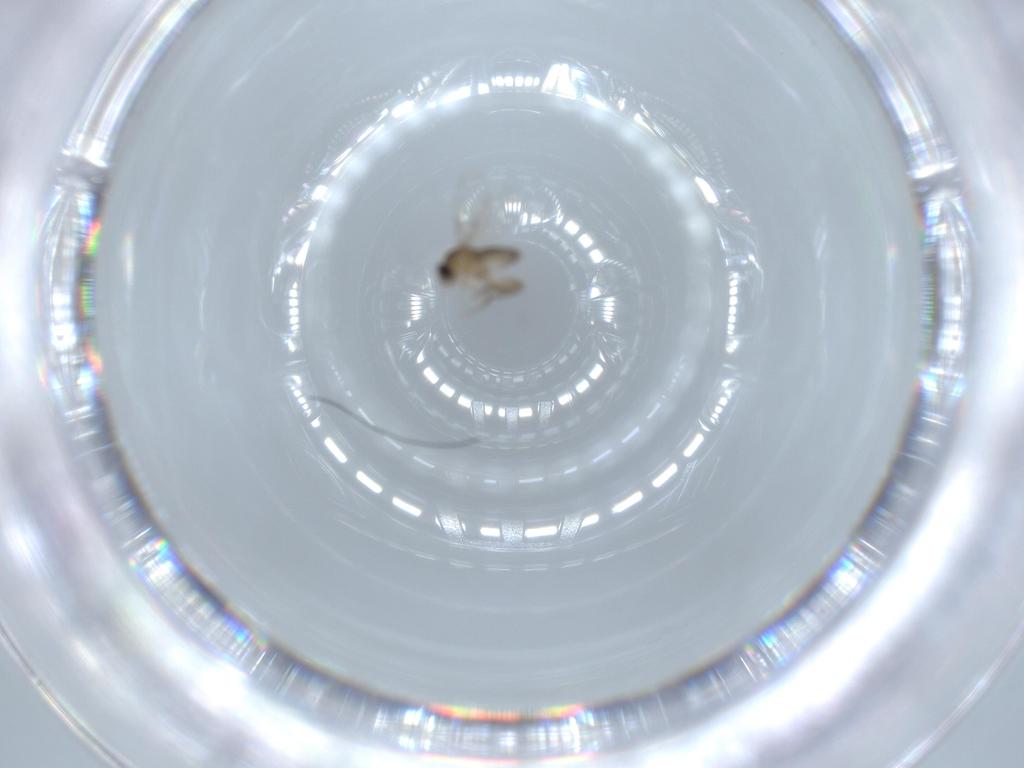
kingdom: Animalia
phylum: Arthropoda
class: Insecta
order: Diptera
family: Phoridae
